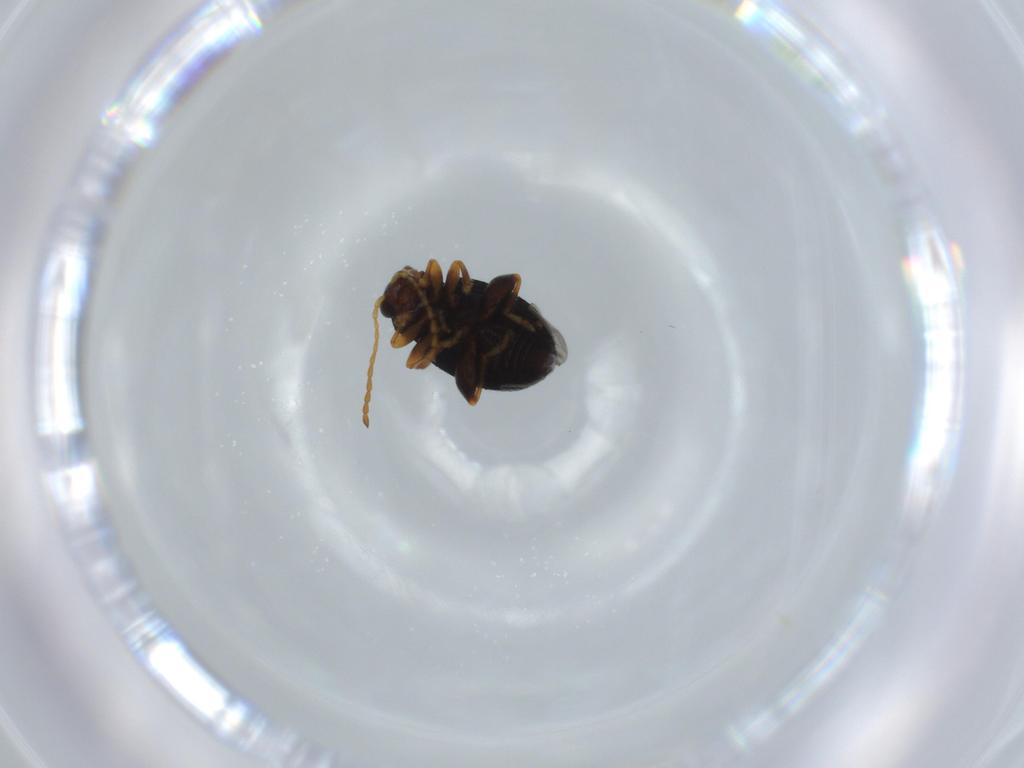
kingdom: Animalia
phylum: Arthropoda
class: Insecta
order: Coleoptera
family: Chrysomelidae
